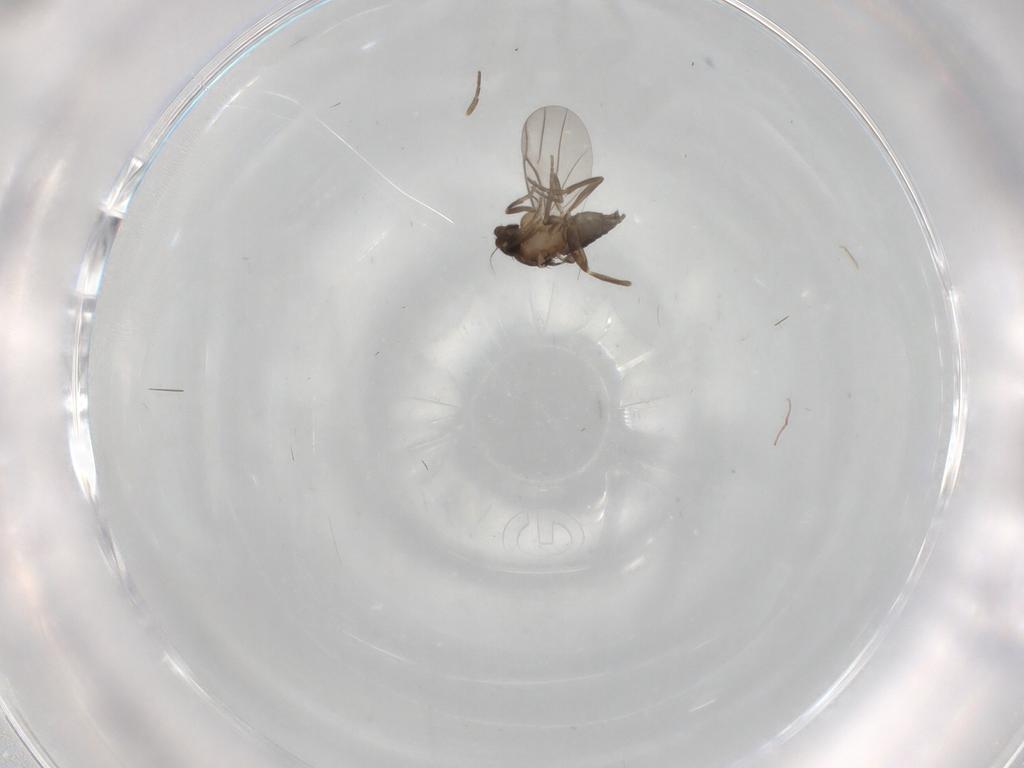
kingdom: Animalia
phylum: Arthropoda
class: Insecta
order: Diptera
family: Phoridae
